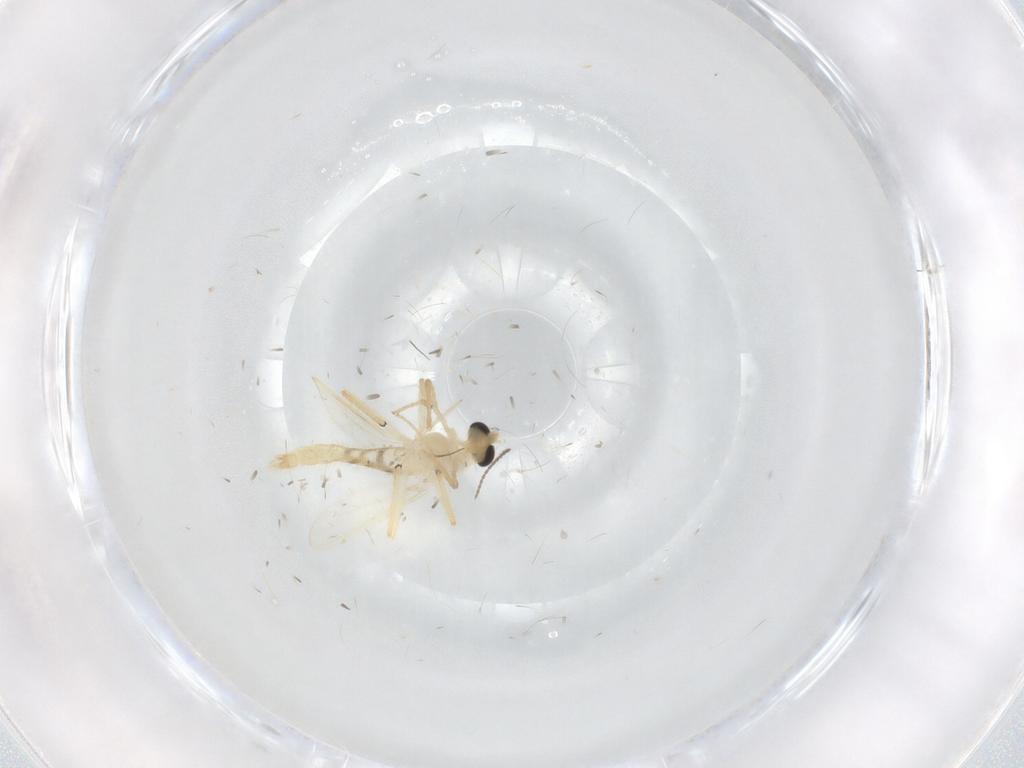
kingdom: Animalia
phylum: Arthropoda
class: Insecta
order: Diptera
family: Chironomidae
